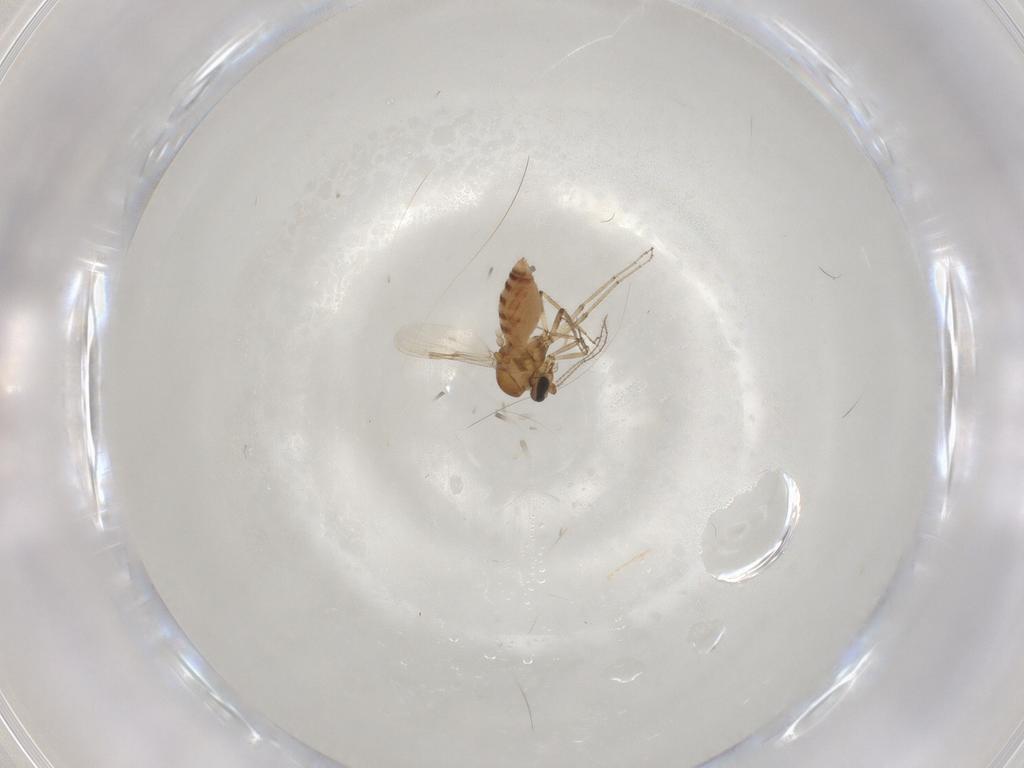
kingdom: Animalia
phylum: Arthropoda
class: Insecta
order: Diptera
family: Ceratopogonidae
